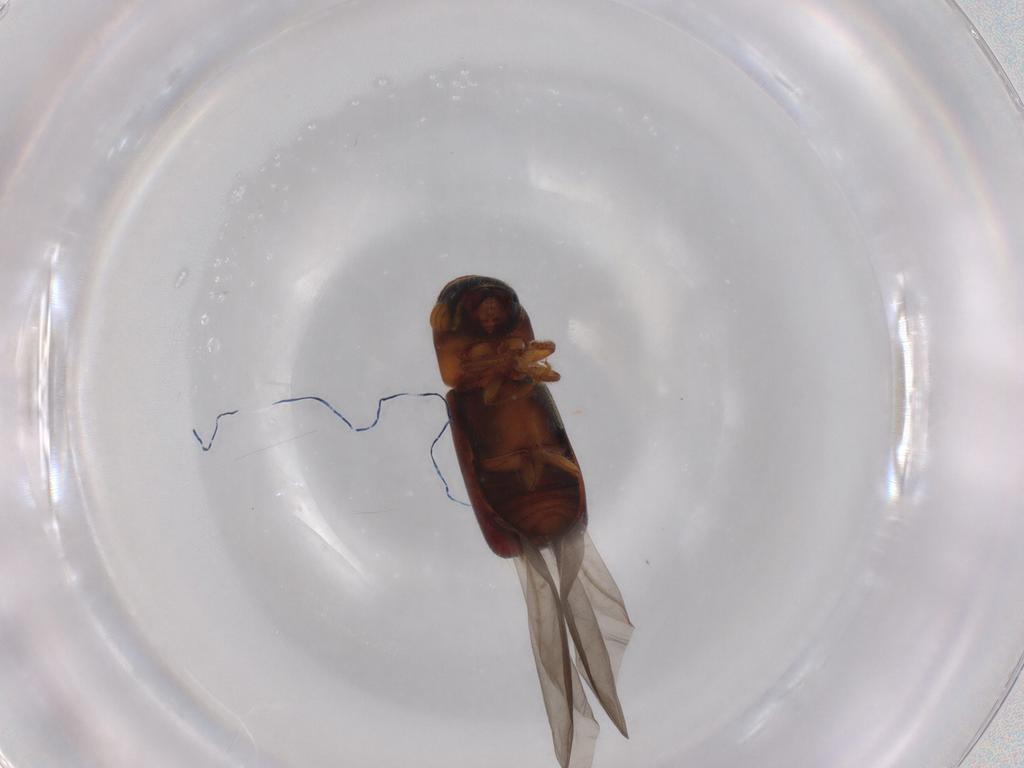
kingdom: Animalia
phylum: Arthropoda
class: Insecta
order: Coleoptera
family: Curculionidae
